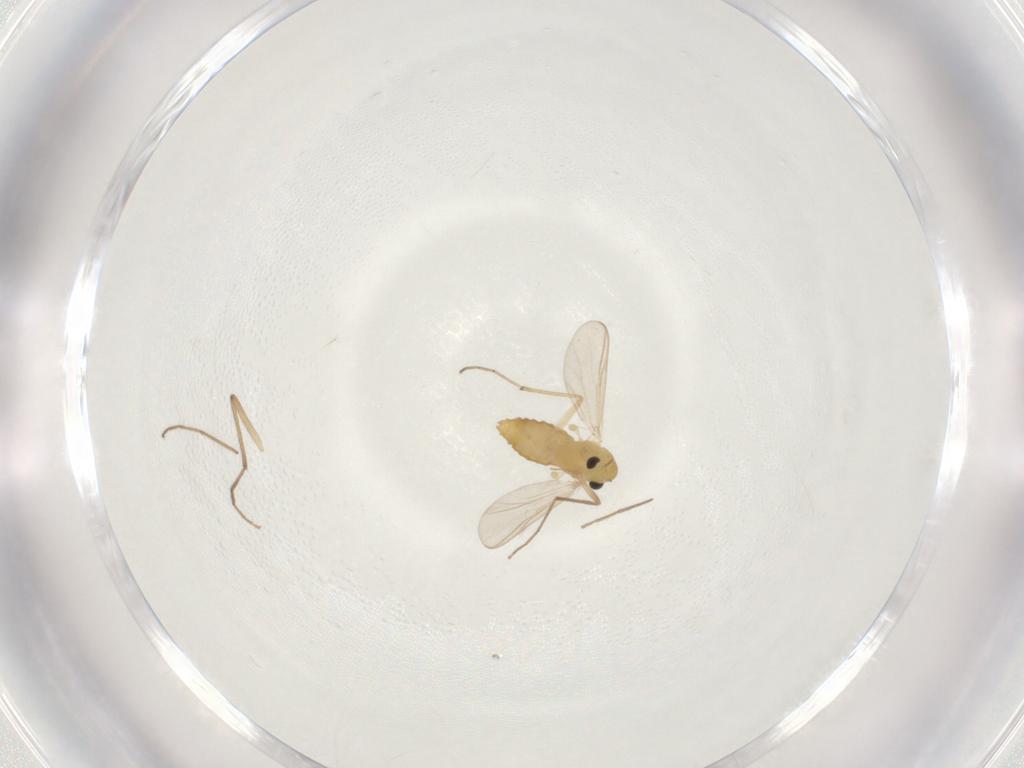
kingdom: Animalia
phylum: Arthropoda
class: Insecta
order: Diptera
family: Chironomidae
